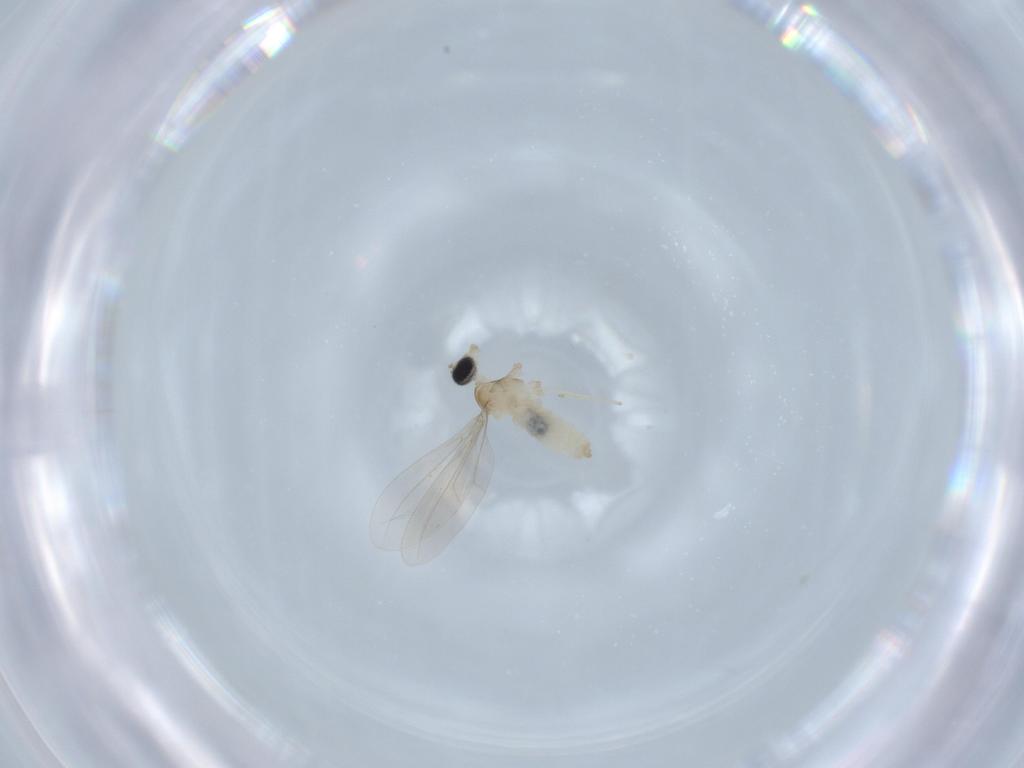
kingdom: Animalia
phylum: Arthropoda
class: Insecta
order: Diptera
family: Cecidomyiidae
